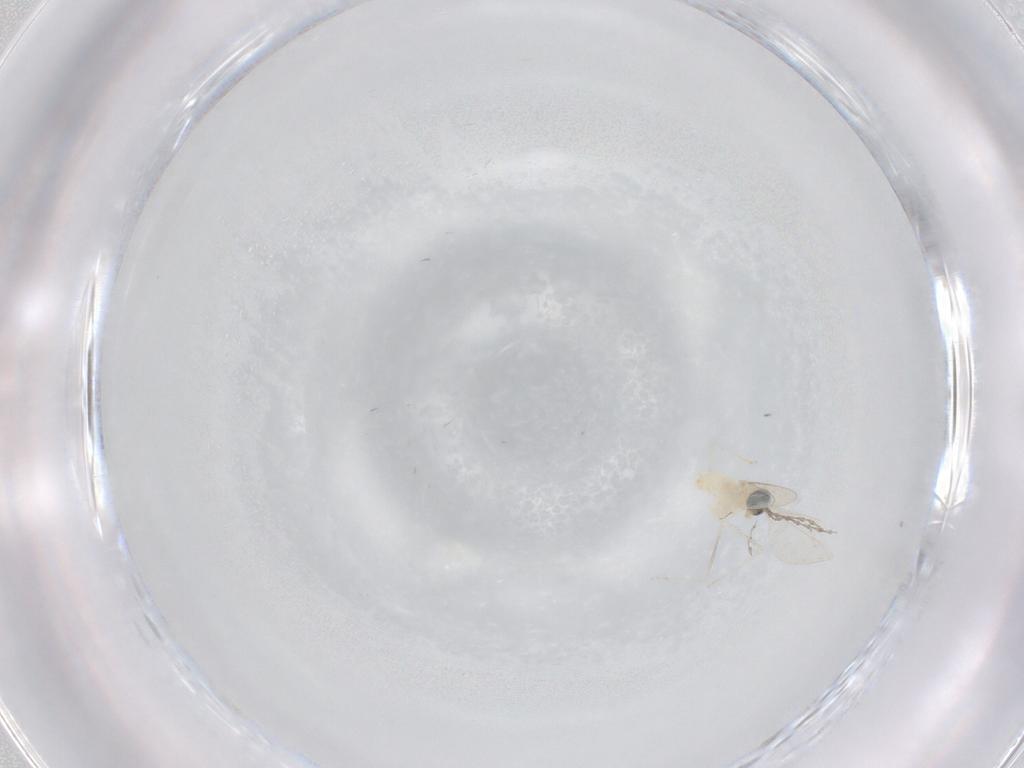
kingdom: Animalia
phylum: Arthropoda
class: Insecta
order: Diptera
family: Cecidomyiidae
